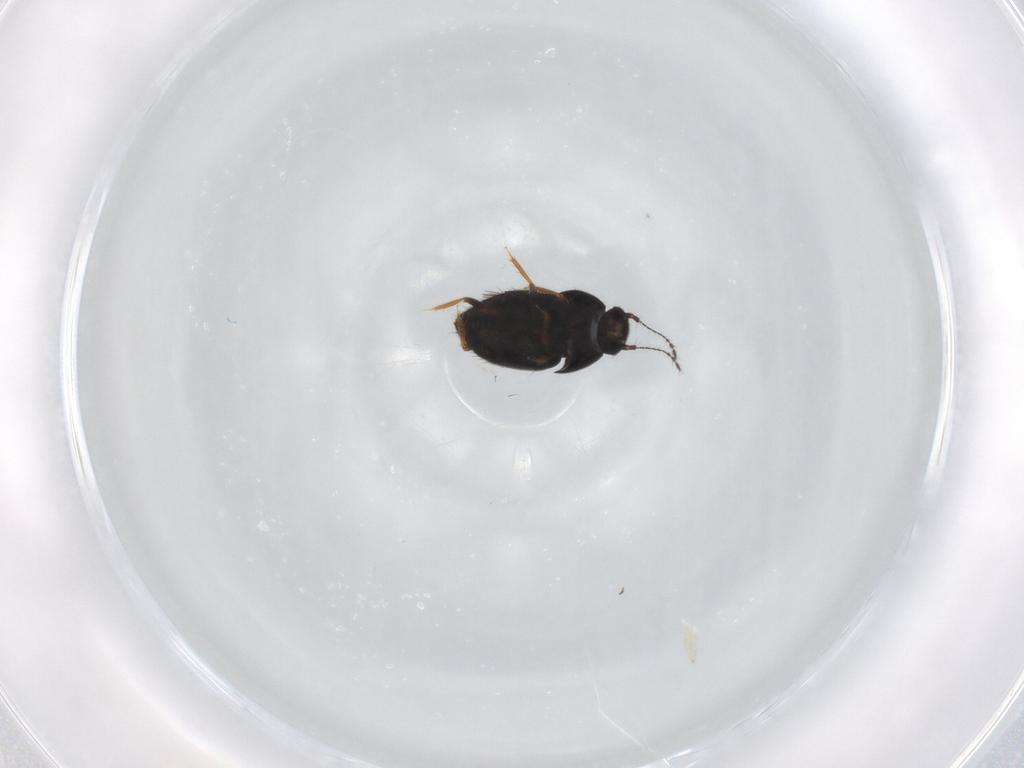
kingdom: Animalia
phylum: Arthropoda
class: Insecta
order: Coleoptera
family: Ptiliidae
